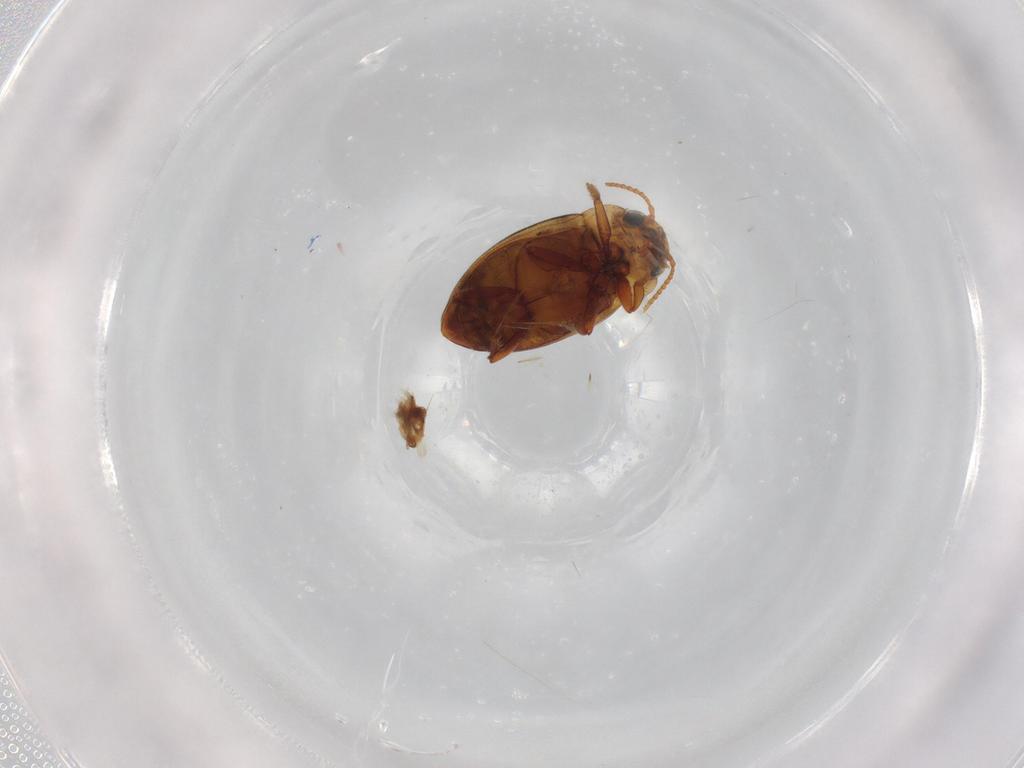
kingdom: Animalia
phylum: Arthropoda
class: Insecta
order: Coleoptera
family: Dytiscidae
